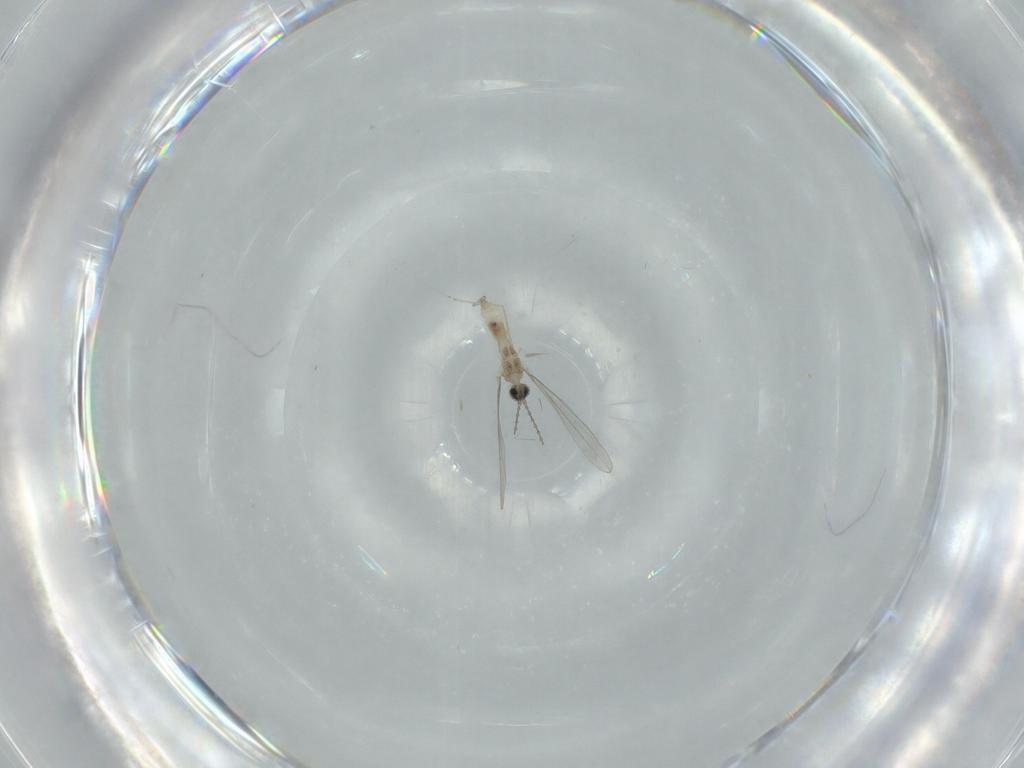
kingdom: Animalia
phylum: Arthropoda
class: Insecta
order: Diptera
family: Cecidomyiidae
